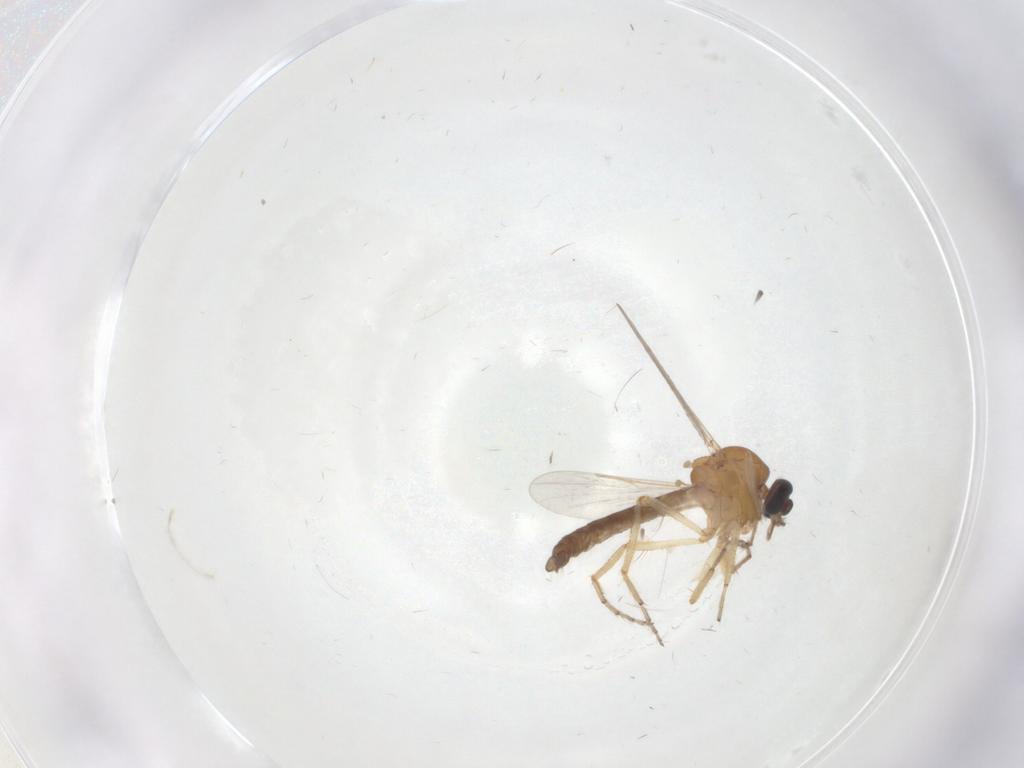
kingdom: Animalia
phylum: Arthropoda
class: Insecta
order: Diptera
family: Ceratopogonidae
